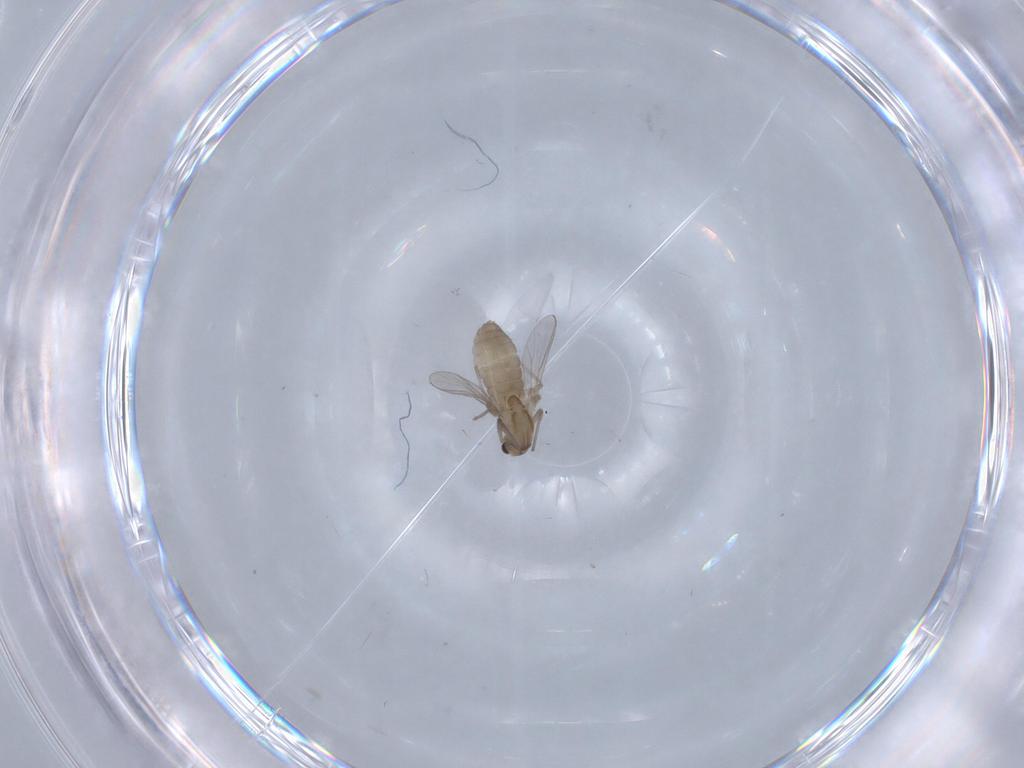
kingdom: Animalia
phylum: Arthropoda
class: Insecta
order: Diptera
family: Chironomidae
